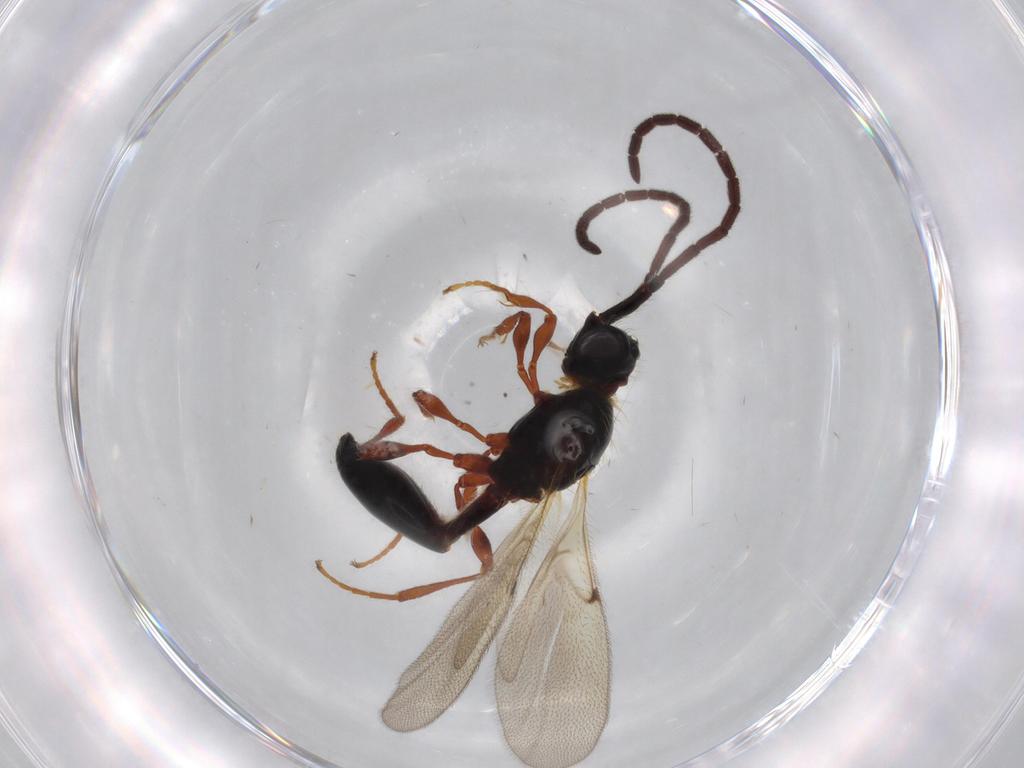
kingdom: Animalia
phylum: Arthropoda
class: Insecta
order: Hymenoptera
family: Diapriidae
